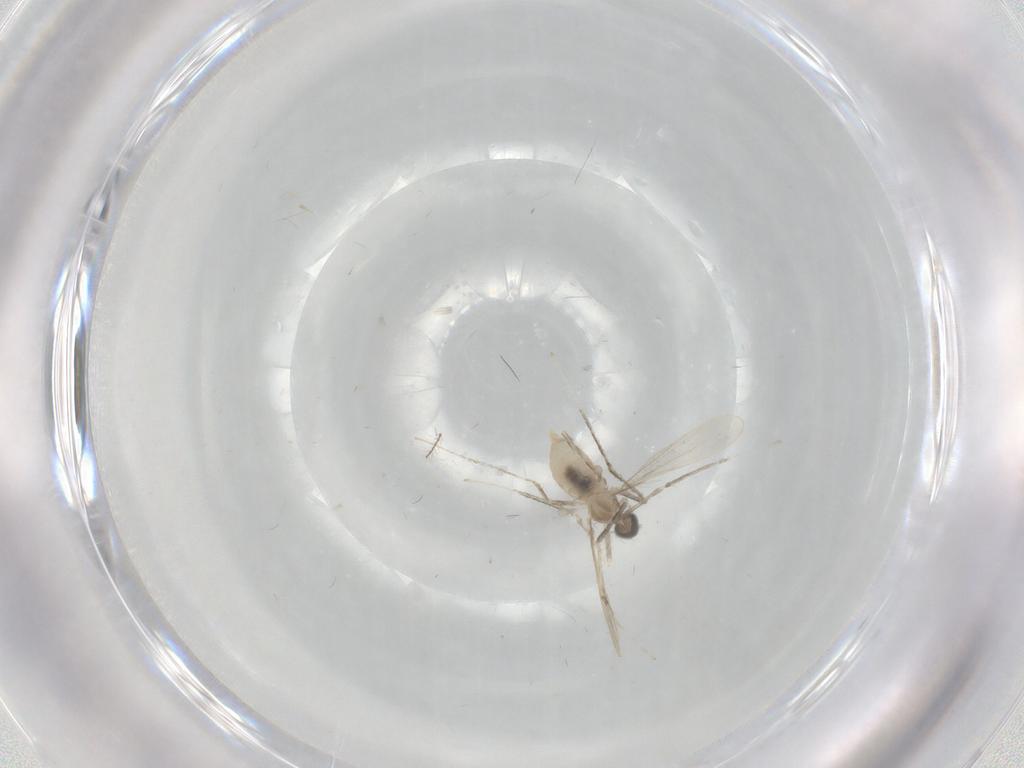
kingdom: Animalia
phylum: Arthropoda
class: Insecta
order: Diptera
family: Cecidomyiidae
